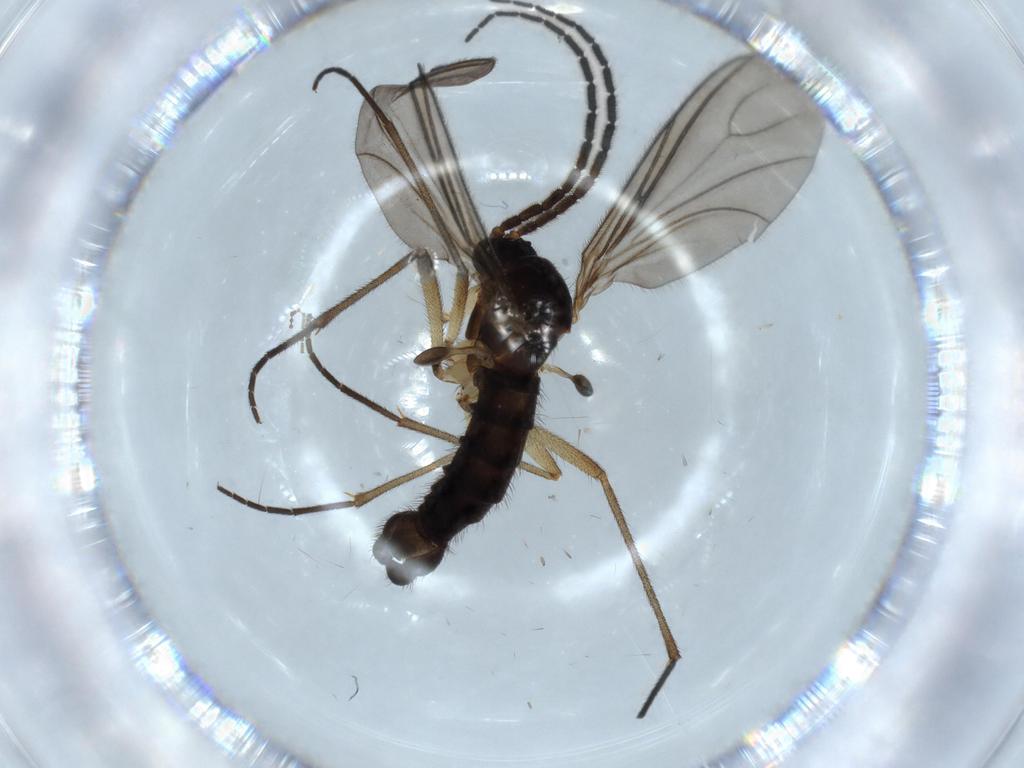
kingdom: Animalia
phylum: Arthropoda
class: Insecta
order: Diptera
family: Sciaridae
